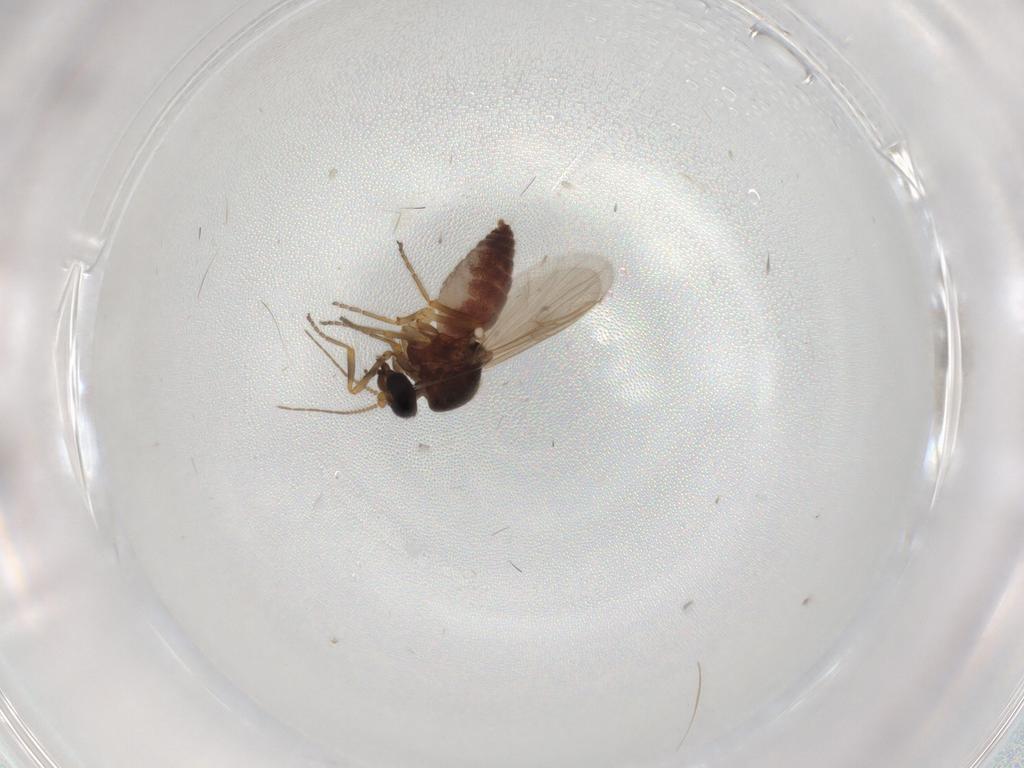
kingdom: Animalia
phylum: Arthropoda
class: Insecta
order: Diptera
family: Ceratopogonidae
